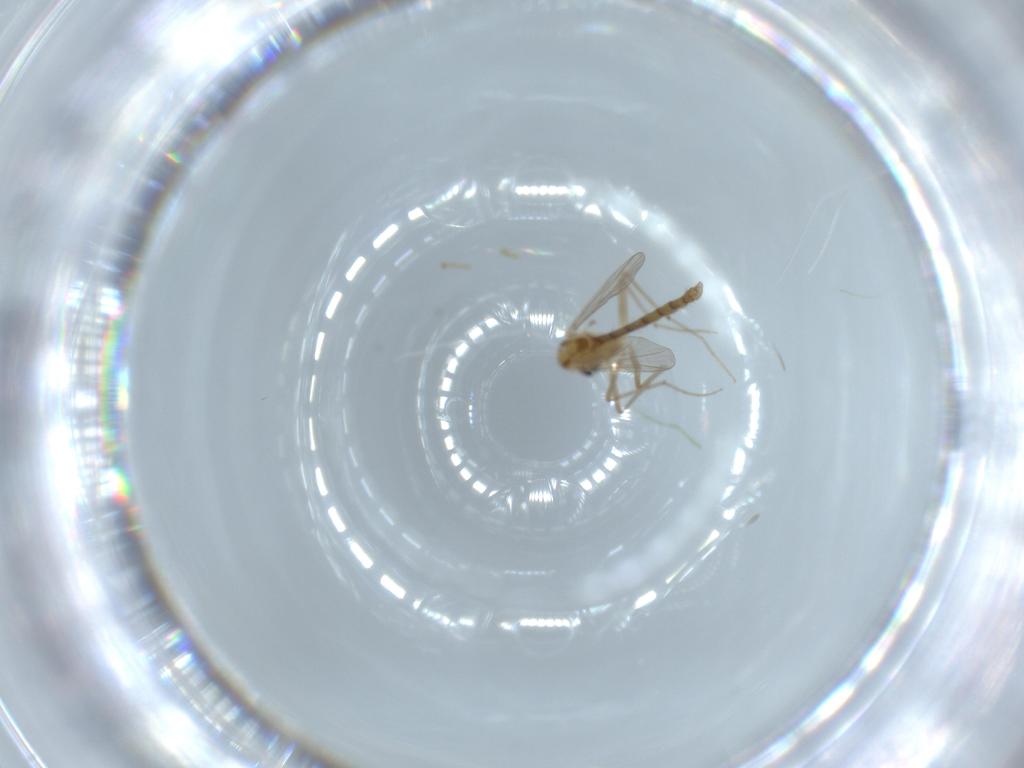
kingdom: Animalia
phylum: Arthropoda
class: Insecta
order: Diptera
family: Chironomidae
